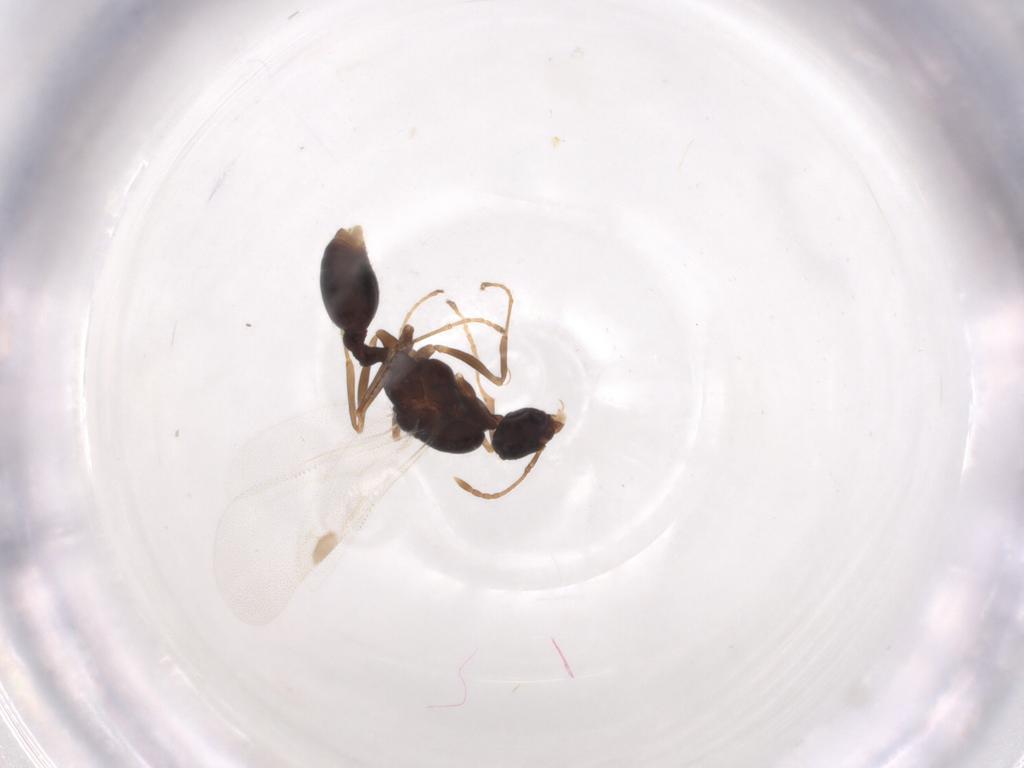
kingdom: Animalia
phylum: Arthropoda
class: Insecta
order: Hymenoptera
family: Formicidae
